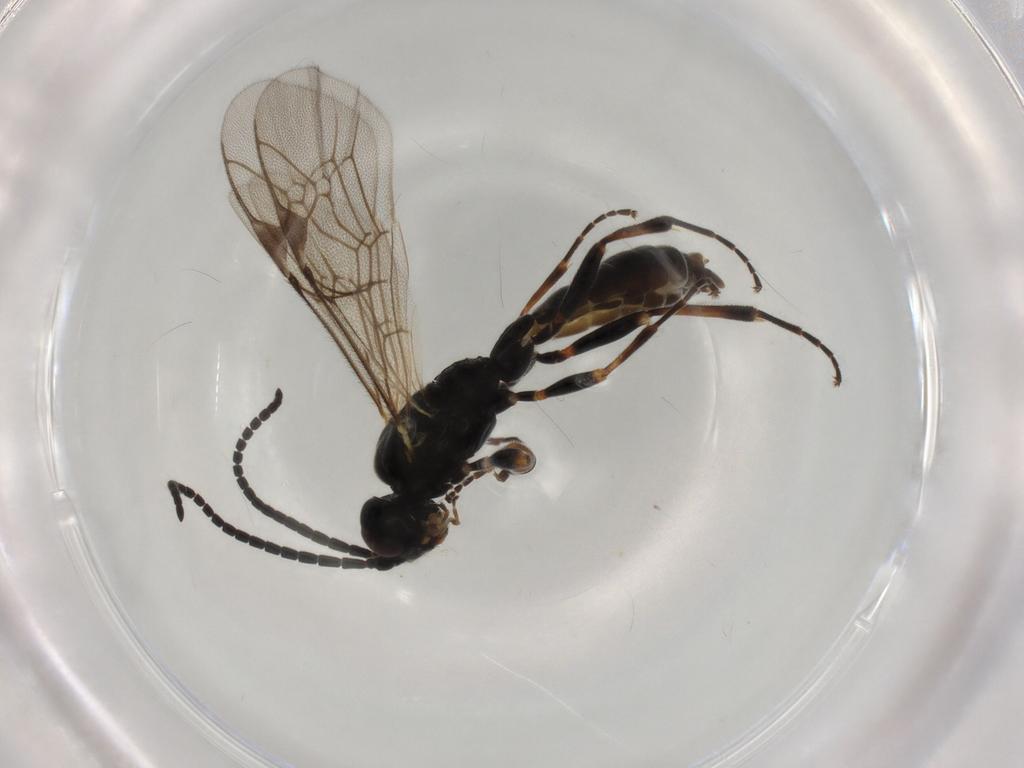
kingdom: Animalia
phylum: Arthropoda
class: Insecta
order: Hymenoptera
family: Ichneumonidae
